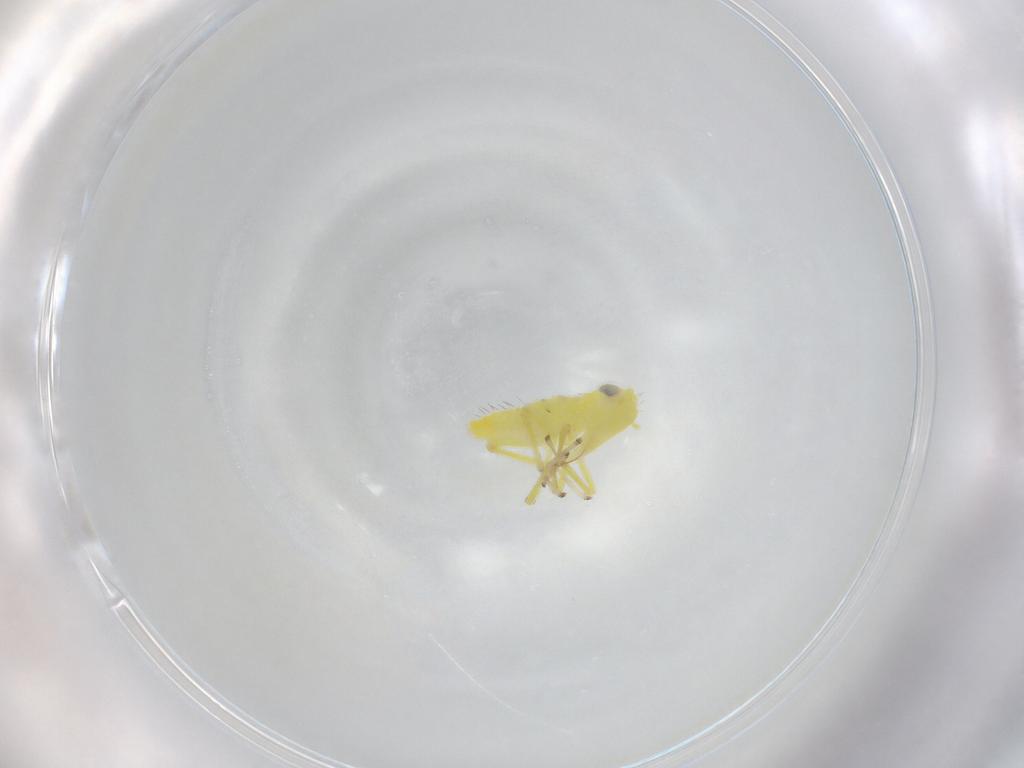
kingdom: Animalia
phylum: Arthropoda
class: Insecta
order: Hemiptera
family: Cicadellidae
